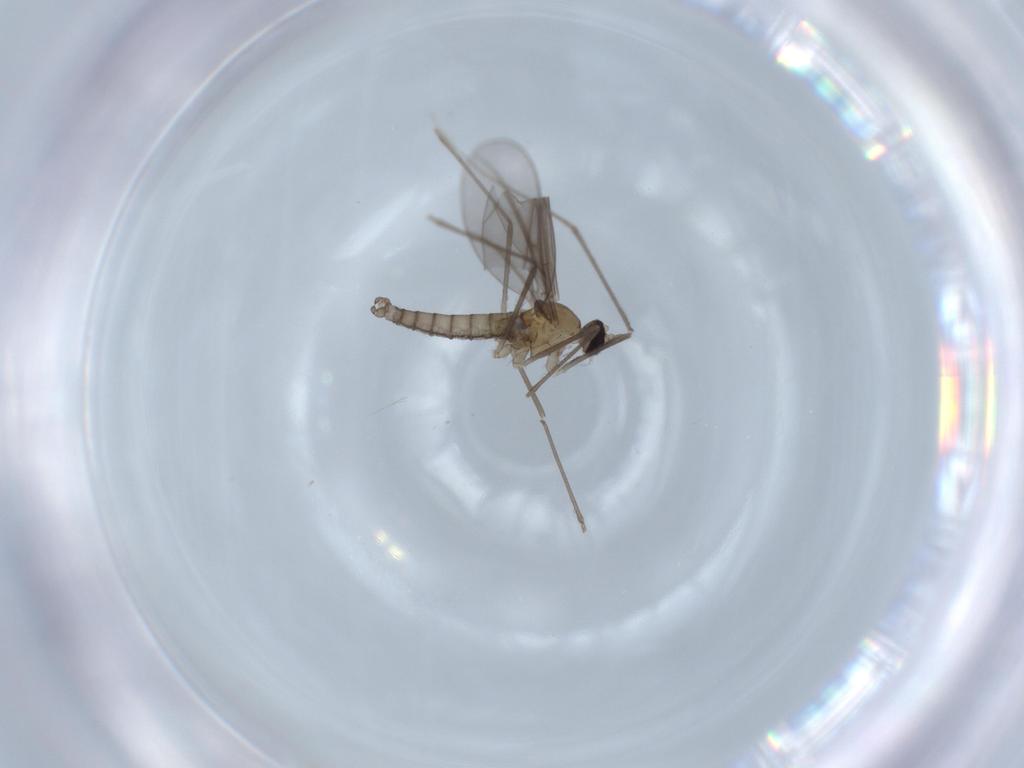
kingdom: Animalia
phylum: Arthropoda
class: Insecta
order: Diptera
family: Cecidomyiidae
